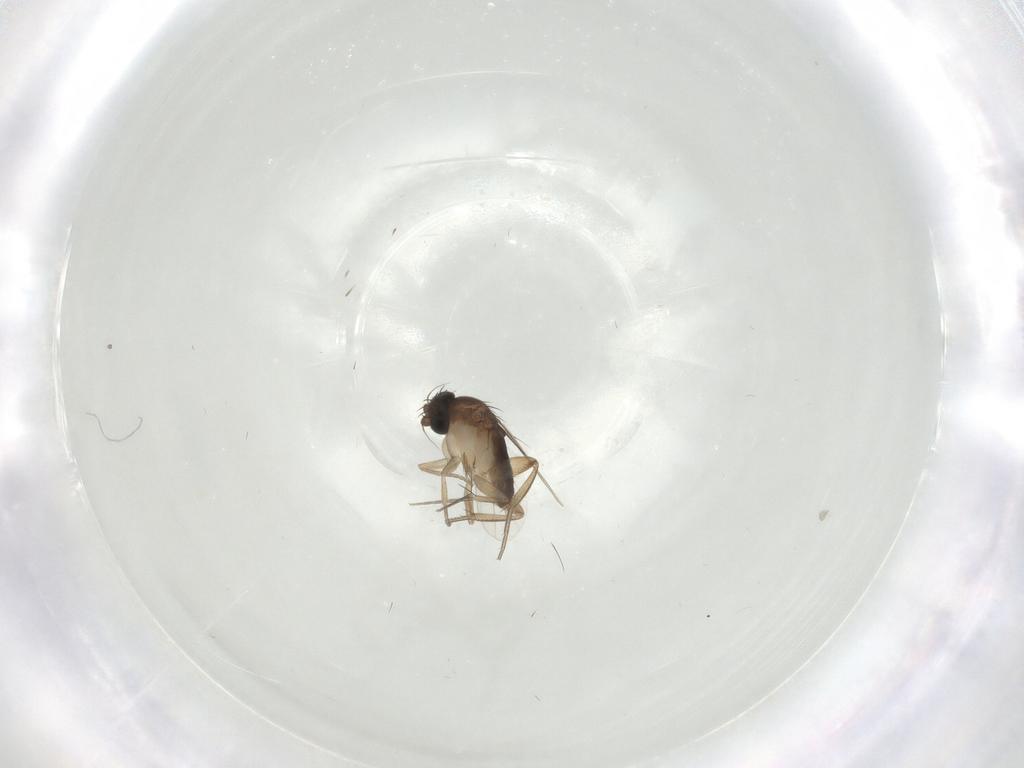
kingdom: Animalia
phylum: Arthropoda
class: Insecta
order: Diptera
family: Phoridae
